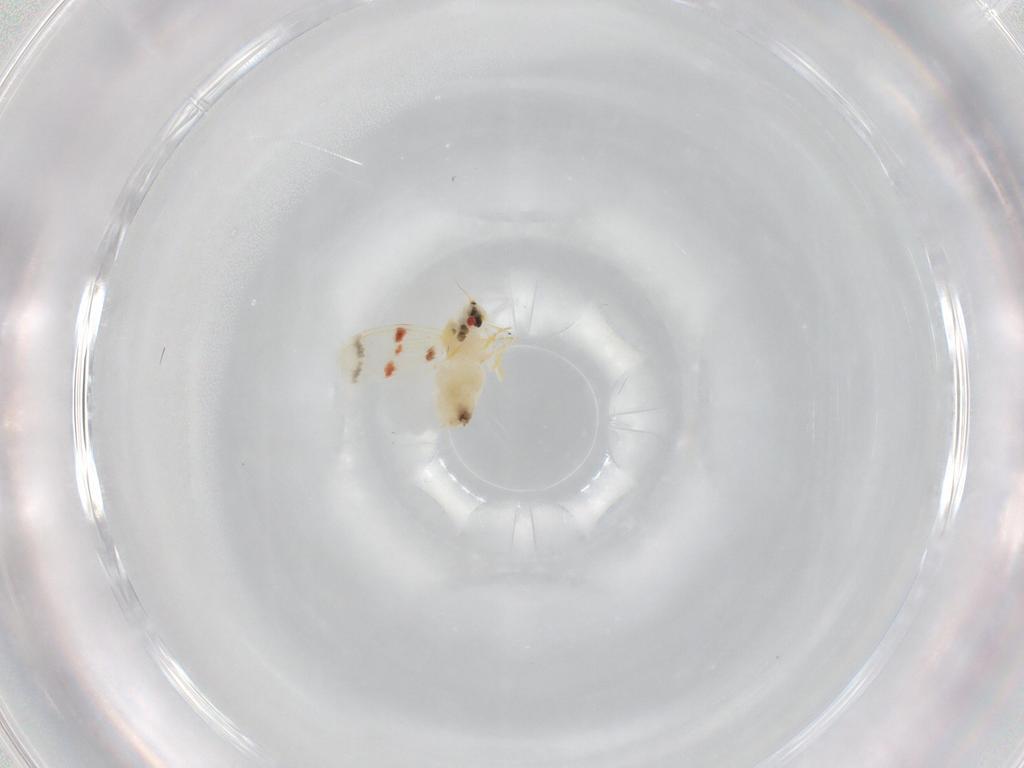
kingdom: Animalia
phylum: Arthropoda
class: Insecta
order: Hemiptera
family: Aleyrodidae
